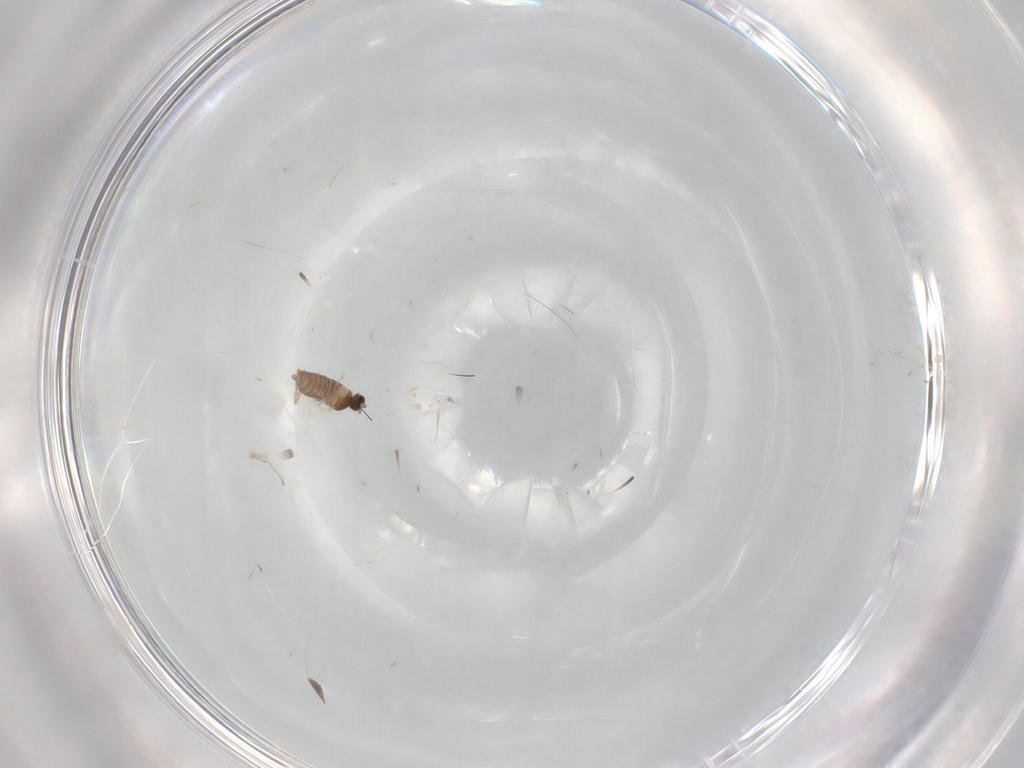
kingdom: Animalia
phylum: Arthropoda
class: Insecta
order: Diptera
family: Cecidomyiidae
